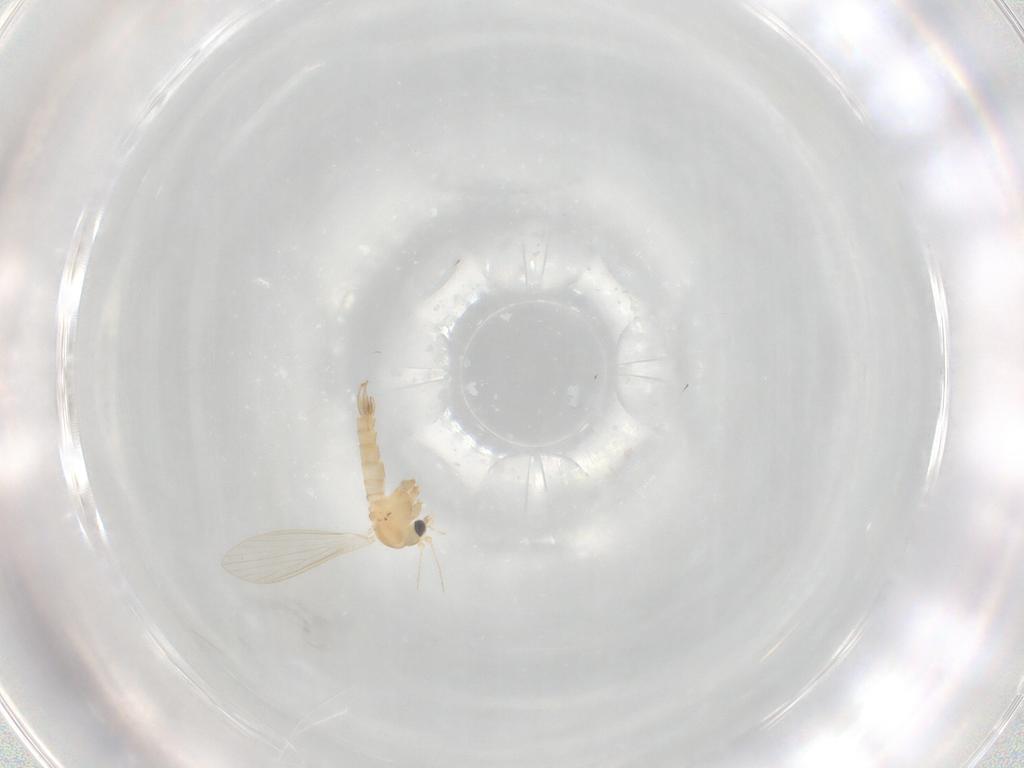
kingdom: Animalia
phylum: Arthropoda
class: Insecta
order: Diptera
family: Psychodidae
